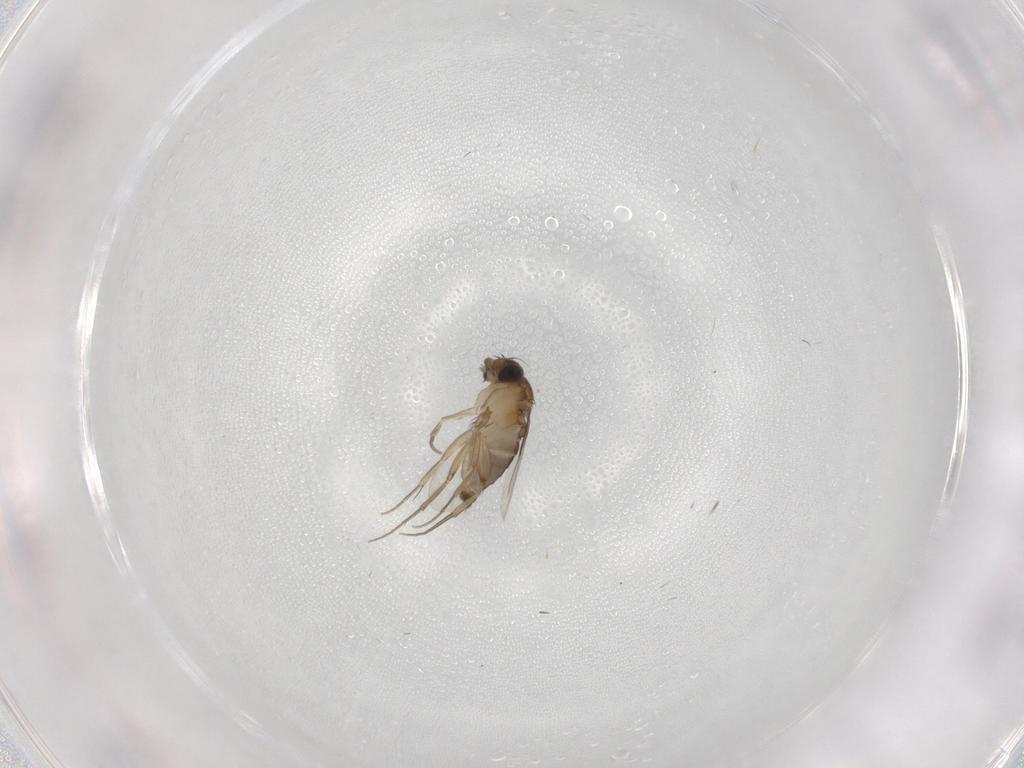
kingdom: Animalia
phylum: Arthropoda
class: Insecta
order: Diptera
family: Phoridae
